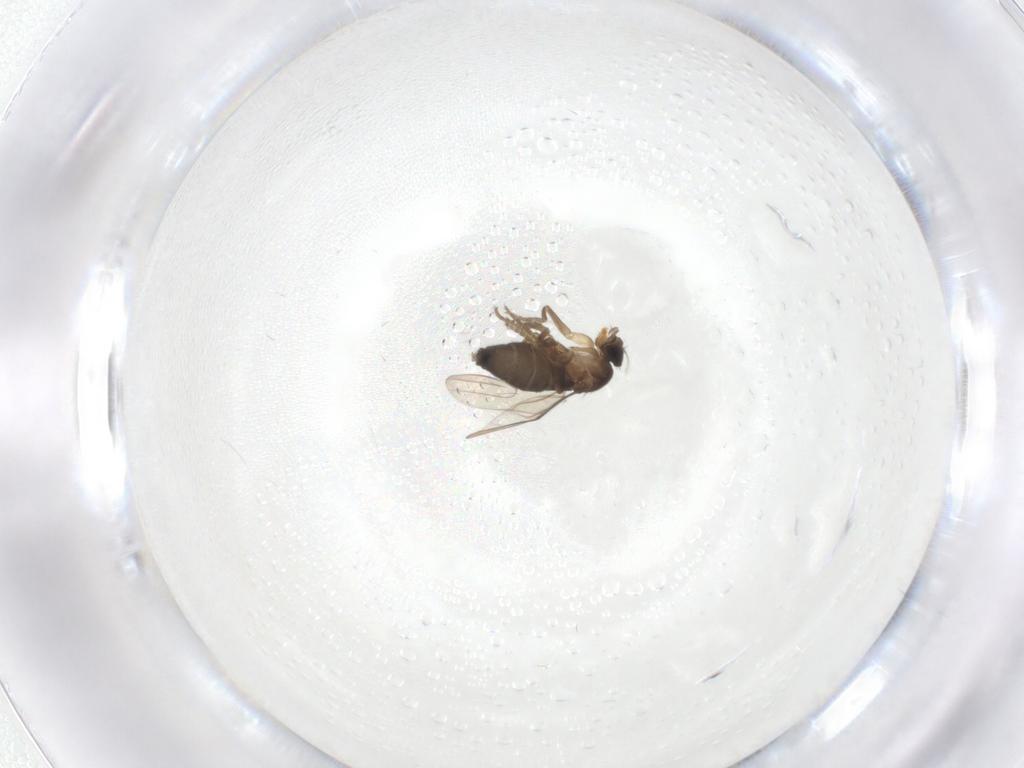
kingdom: Animalia
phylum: Arthropoda
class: Insecta
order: Diptera
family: Phoridae
